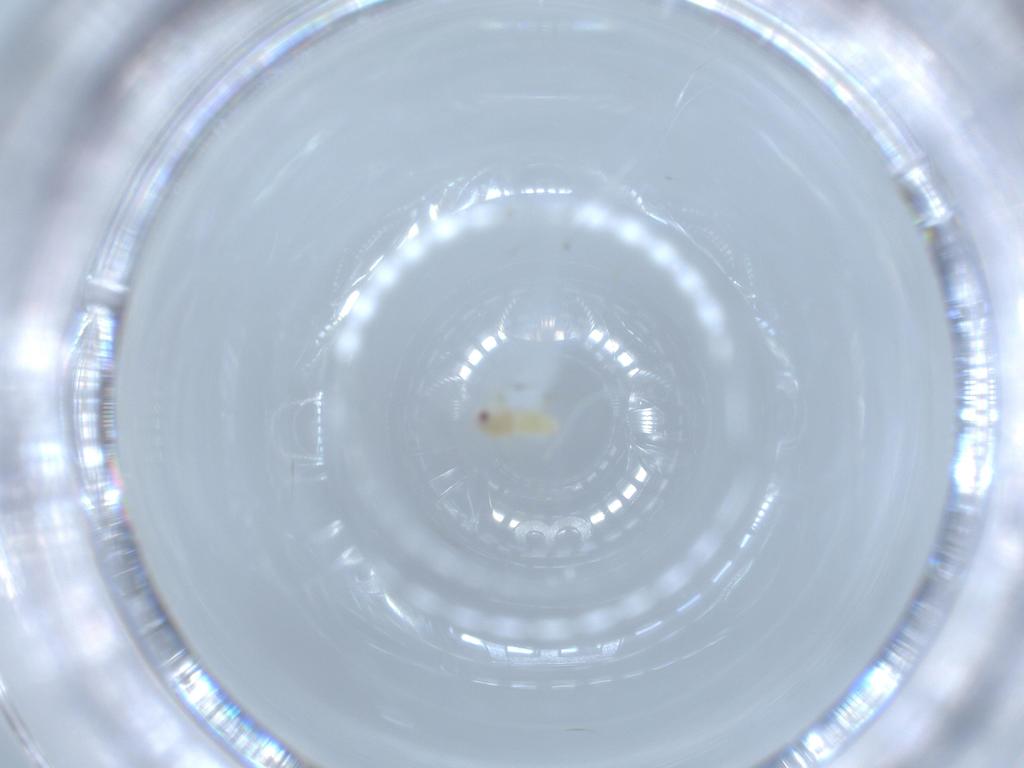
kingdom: Animalia
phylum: Arthropoda
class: Insecta
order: Hemiptera
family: Aleyrodidae
